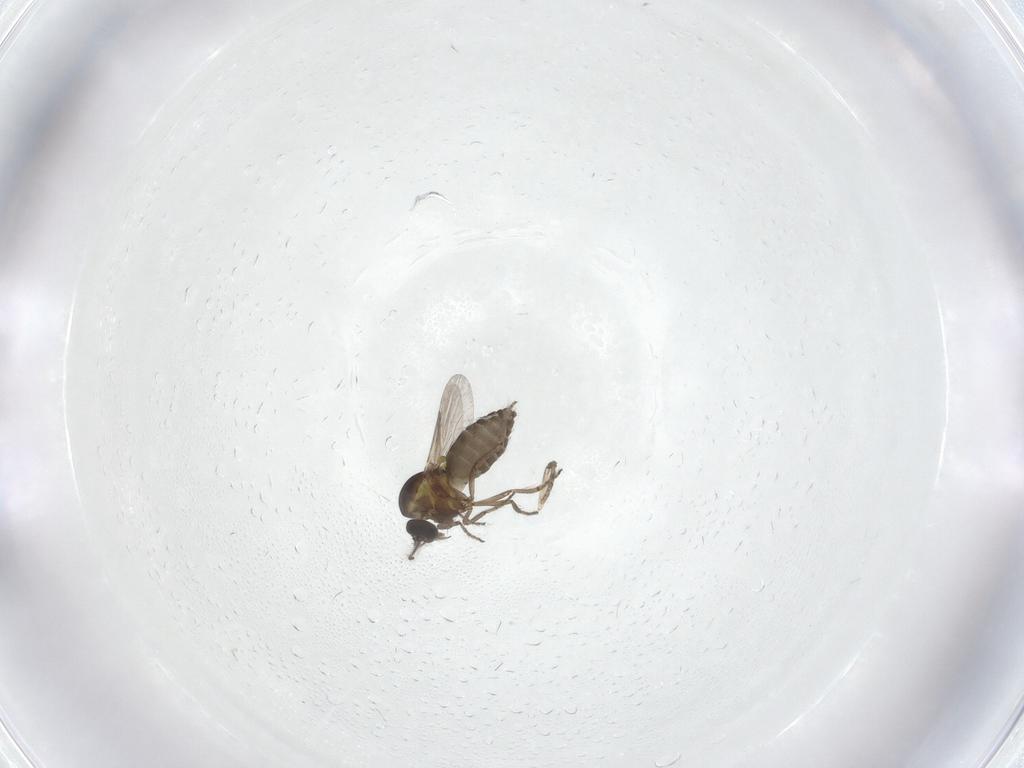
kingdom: Animalia
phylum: Arthropoda
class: Insecta
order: Diptera
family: Ceratopogonidae
